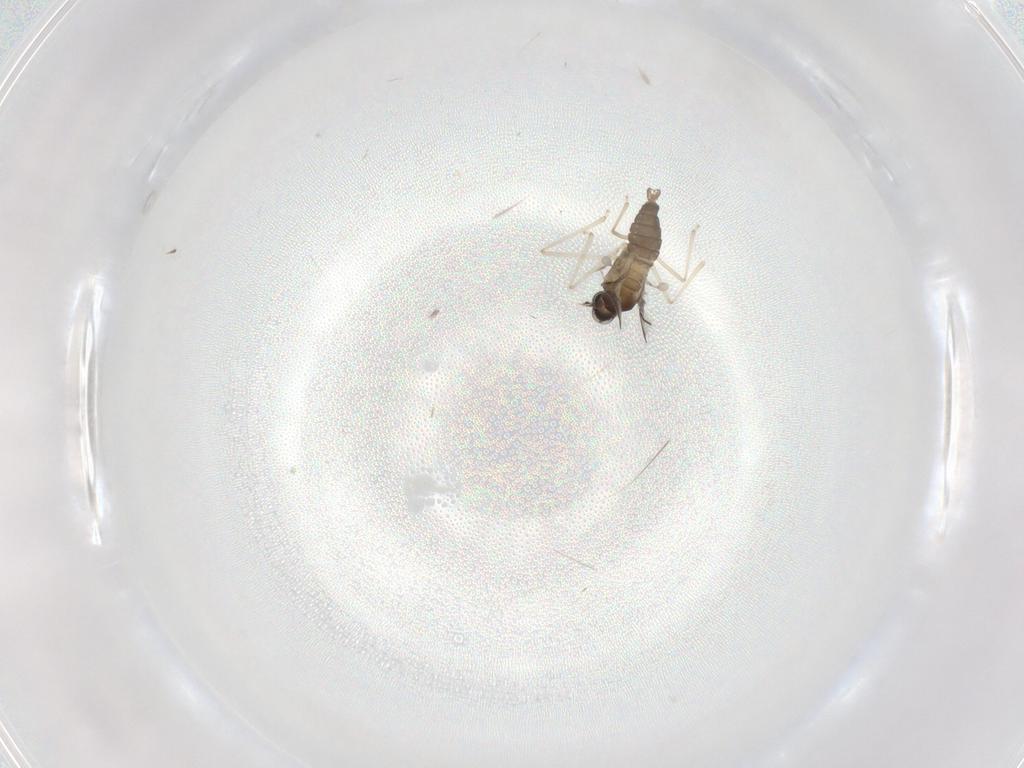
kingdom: Animalia
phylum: Arthropoda
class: Insecta
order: Diptera
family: Cecidomyiidae
